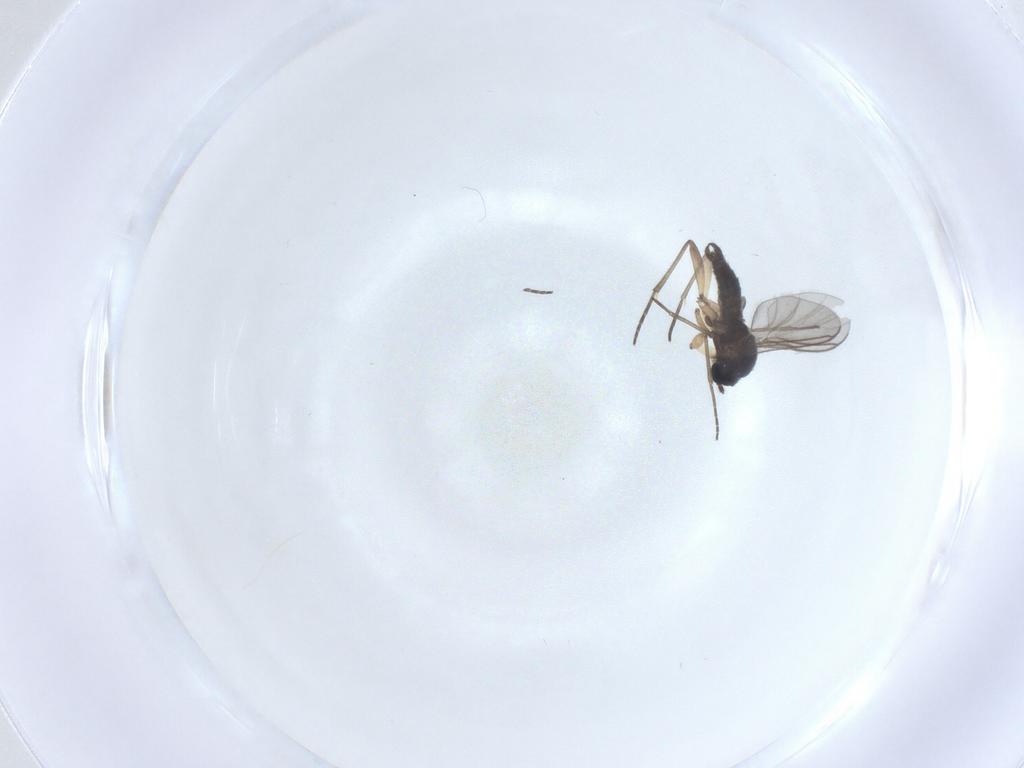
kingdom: Animalia
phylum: Arthropoda
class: Insecta
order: Diptera
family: Sciaridae
